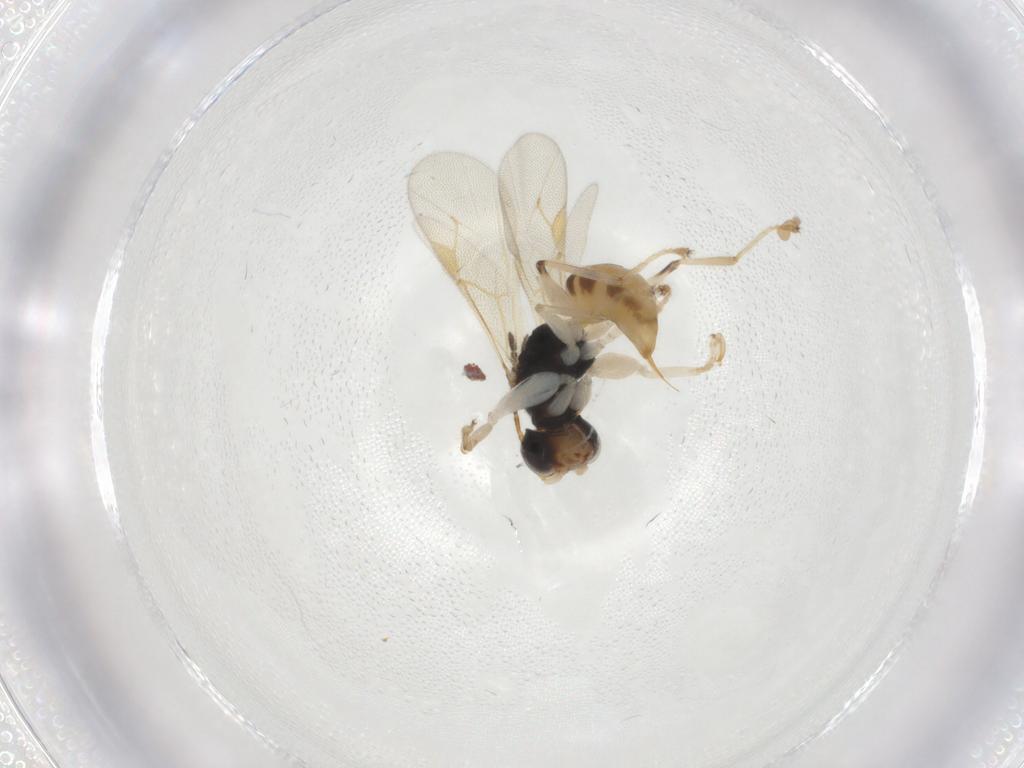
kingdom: Animalia
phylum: Arthropoda
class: Insecta
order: Hymenoptera
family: Dryinidae
